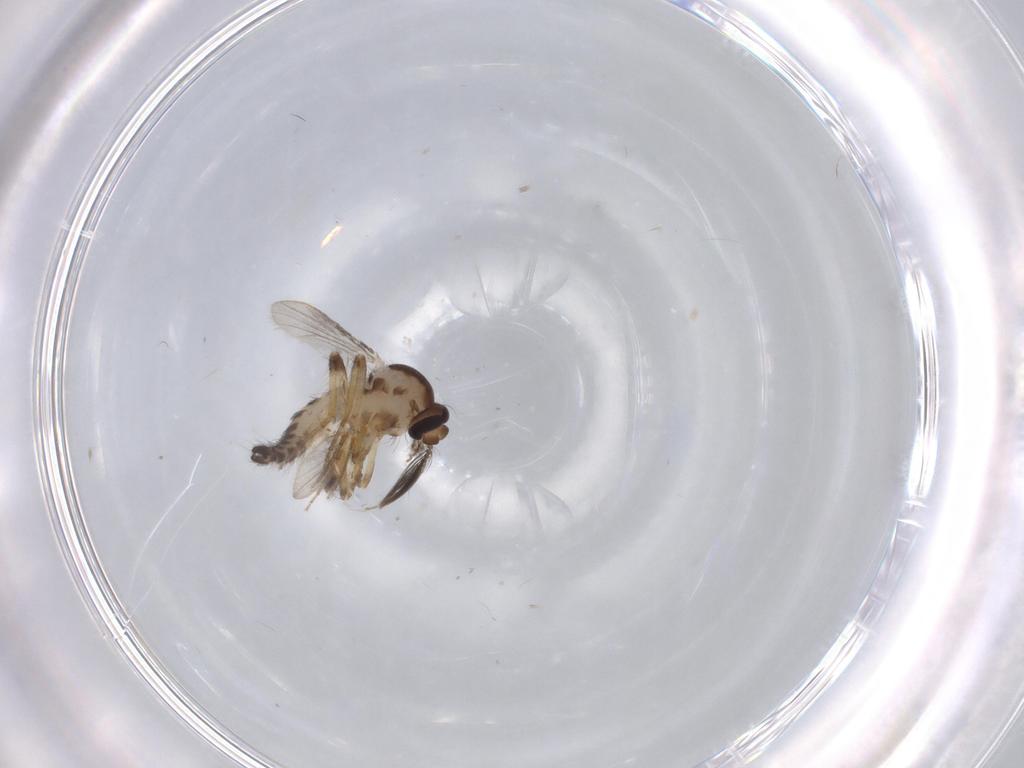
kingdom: Animalia
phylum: Arthropoda
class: Insecta
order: Diptera
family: Ceratopogonidae
